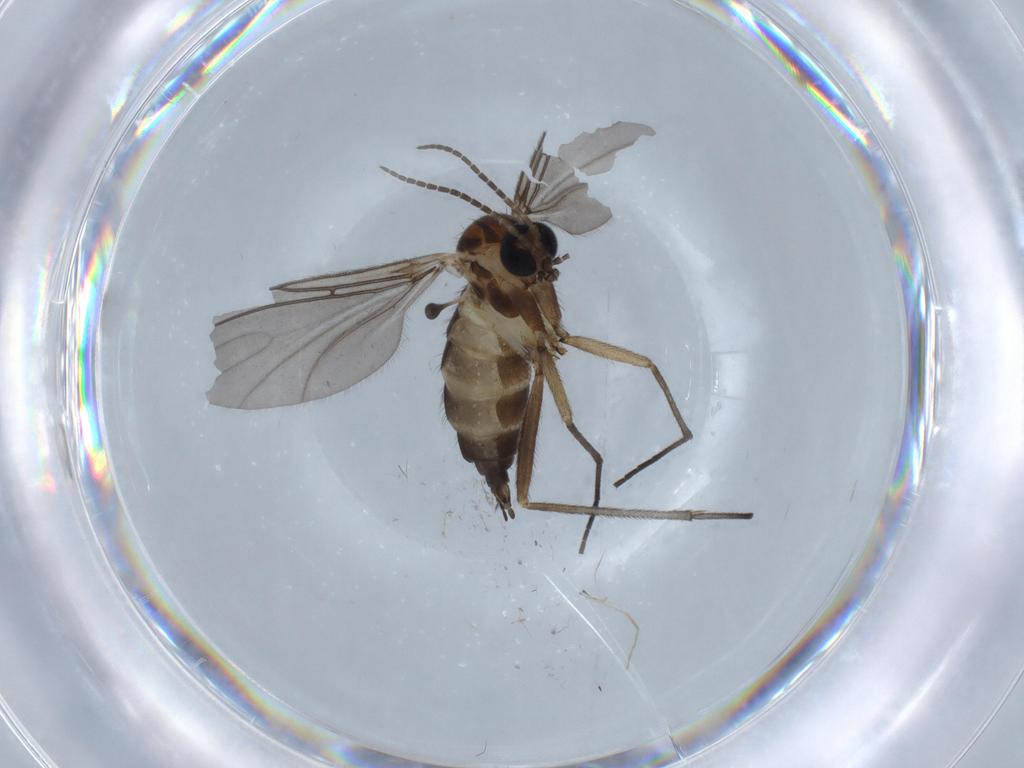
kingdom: Animalia
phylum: Arthropoda
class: Insecta
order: Diptera
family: Sciaridae
